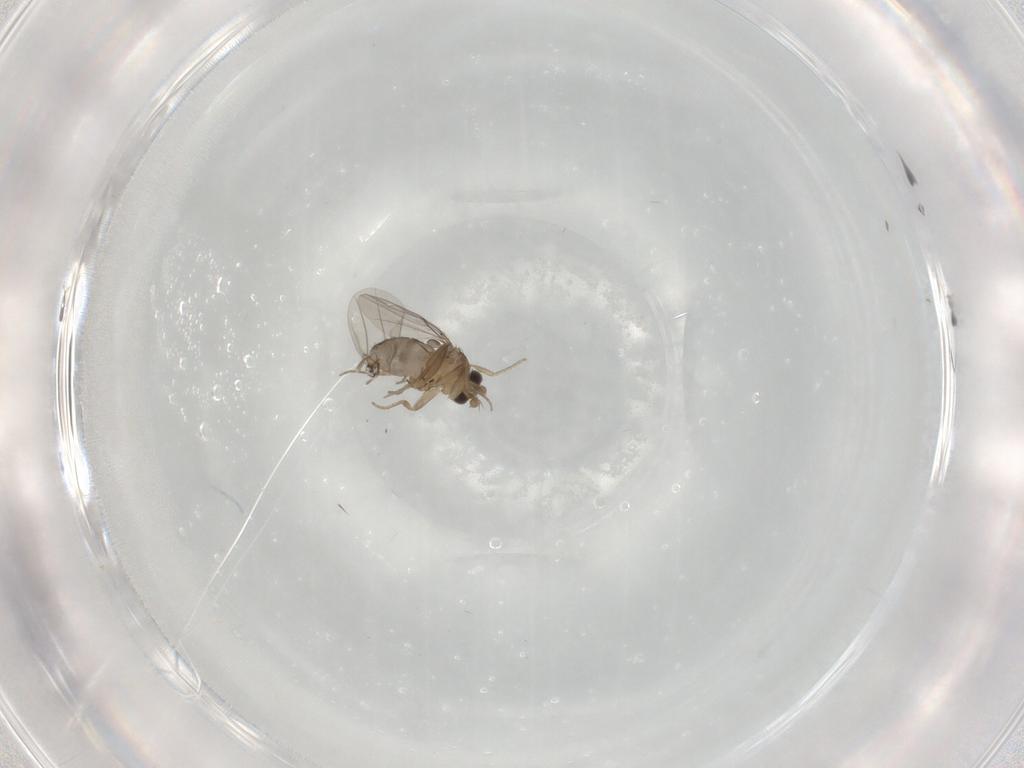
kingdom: Animalia
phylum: Arthropoda
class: Insecta
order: Diptera
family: Phoridae
